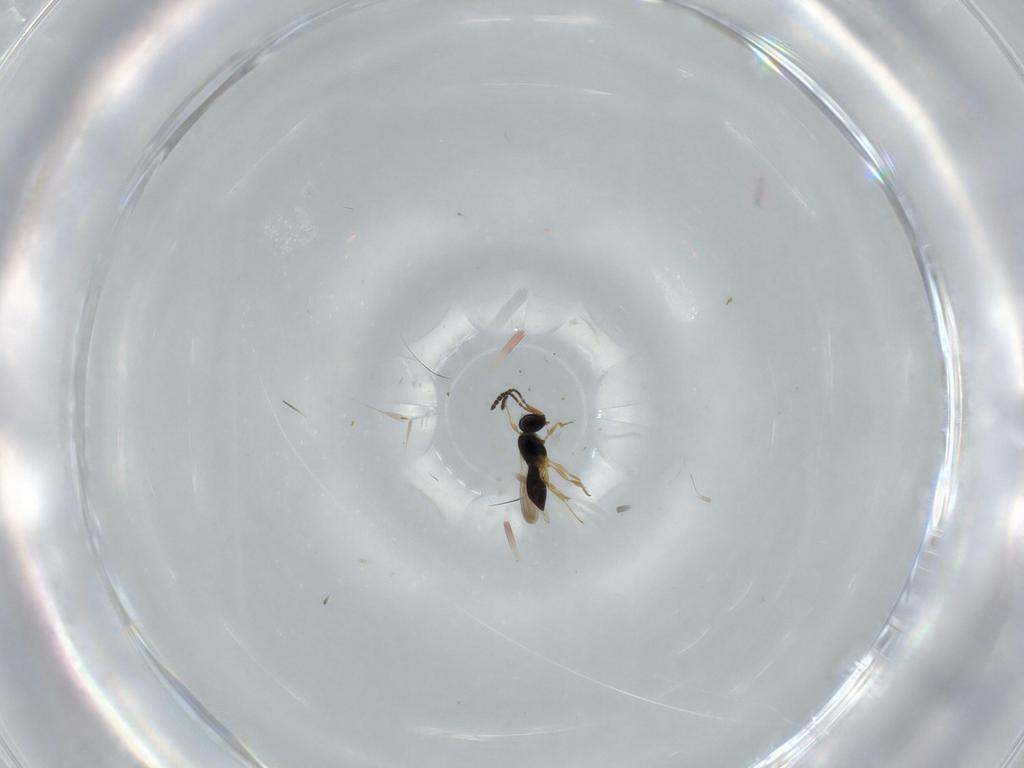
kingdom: Animalia
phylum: Arthropoda
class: Insecta
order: Hymenoptera
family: Scelionidae
